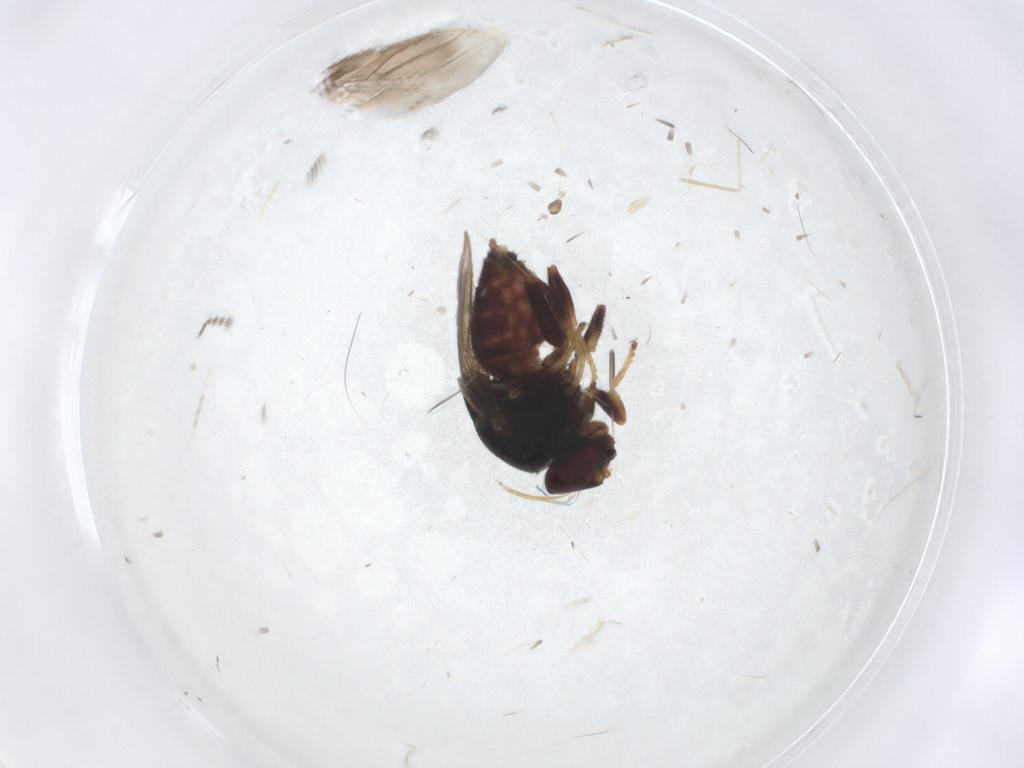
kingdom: Animalia
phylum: Arthropoda
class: Insecta
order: Diptera
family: Chloropidae
